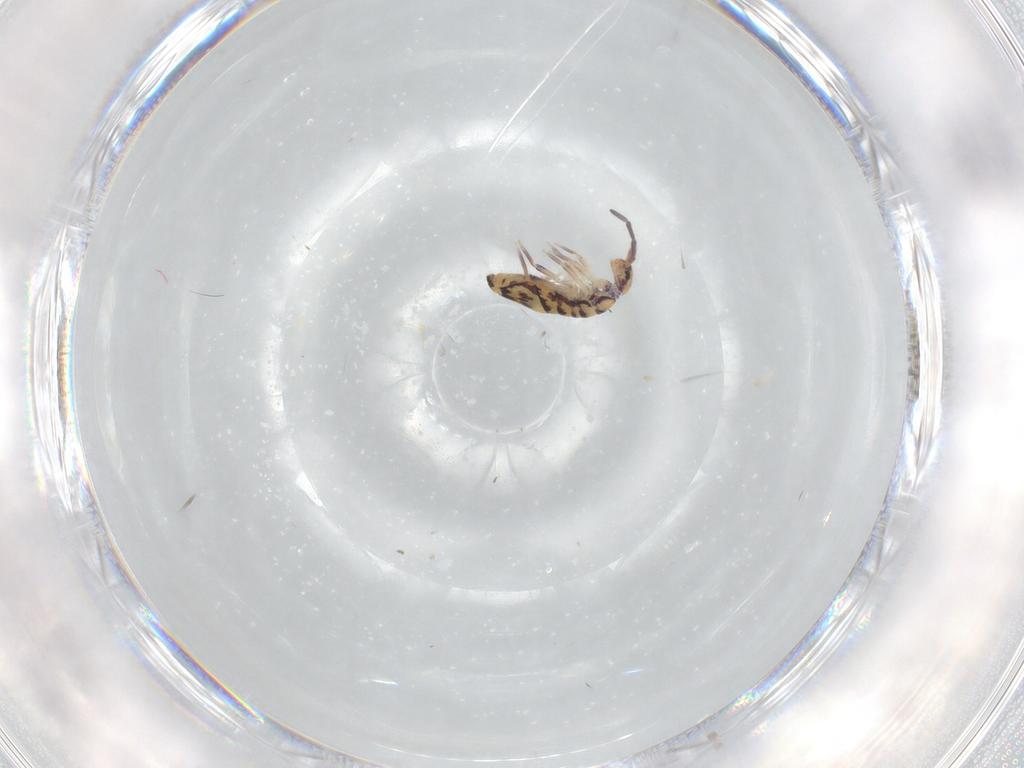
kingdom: Animalia
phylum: Arthropoda
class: Collembola
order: Entomobryomorpha
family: Entomobryidae
